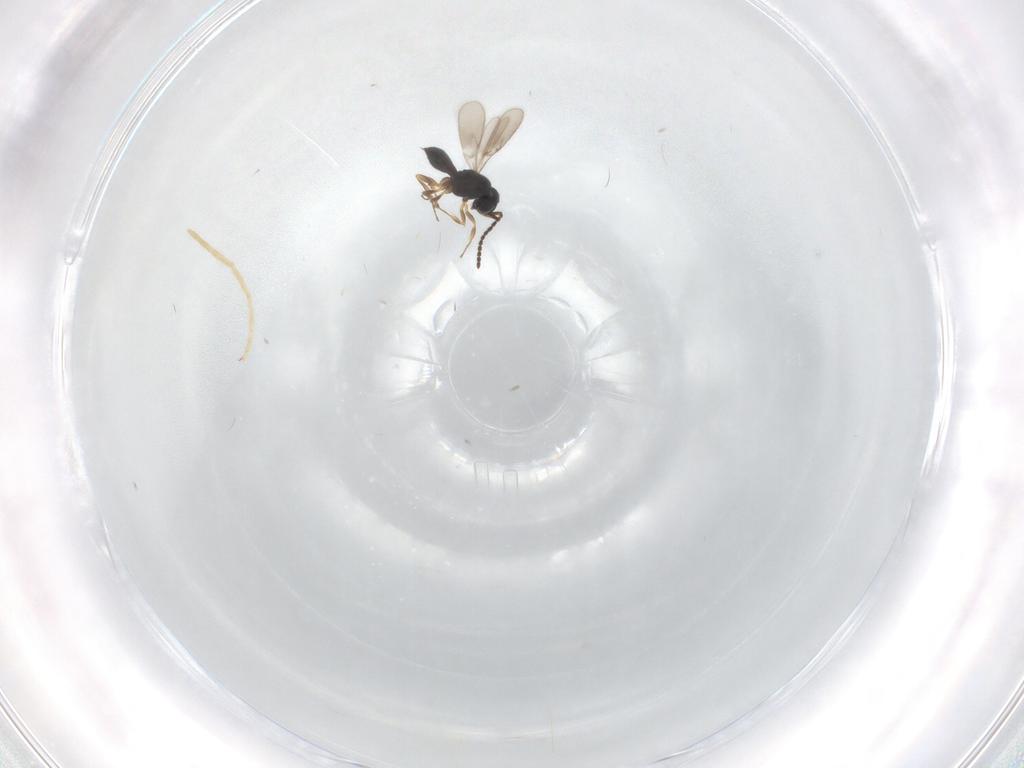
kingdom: Animalia
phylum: Arthropoda
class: Insecta
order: Hymenoptera
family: Scelionidae
